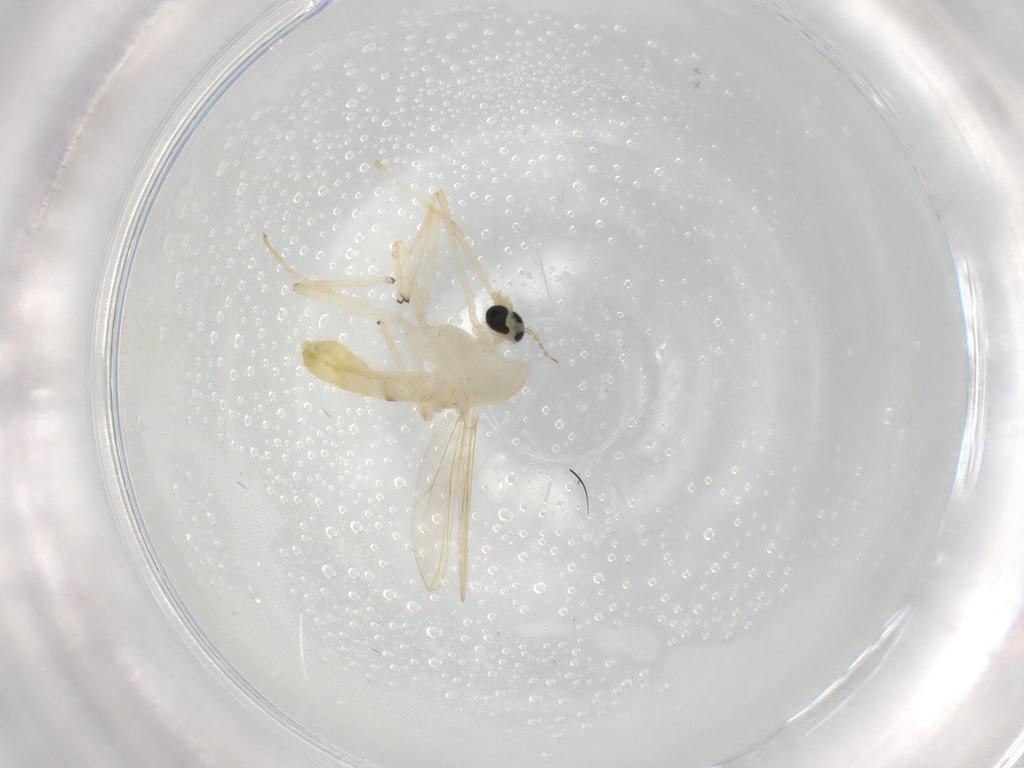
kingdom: Animalia
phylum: Arthropoda
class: Insecta
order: Diptera
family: Chironomidae
